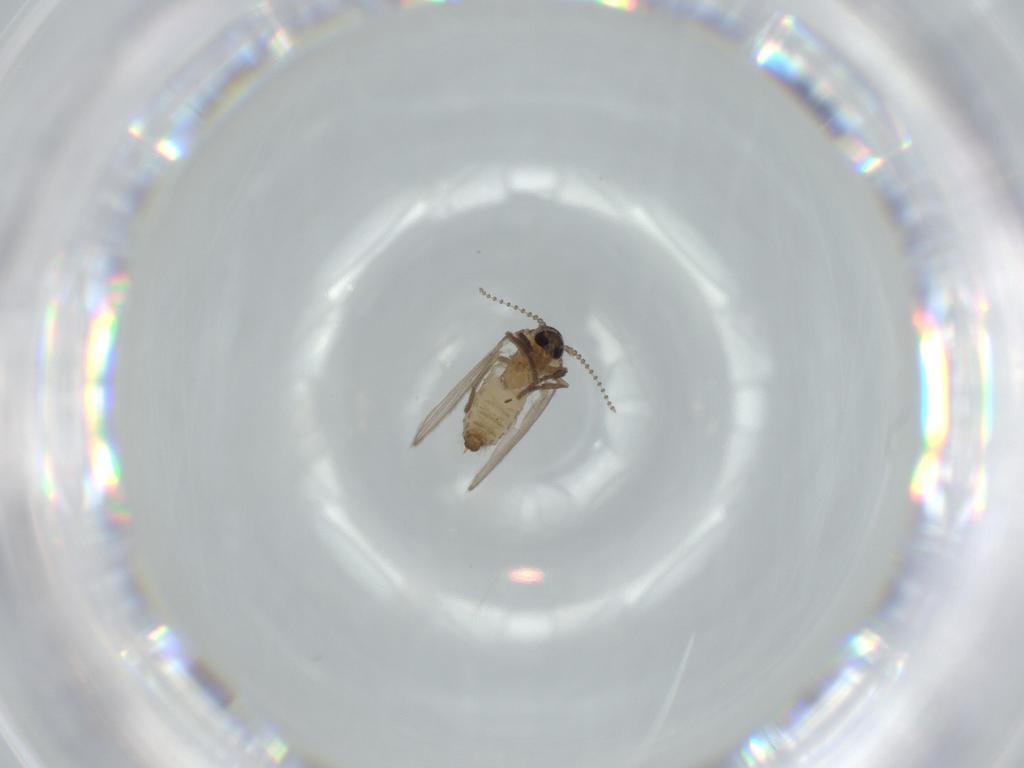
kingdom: Animalia
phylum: Arthropoda
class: Insecta
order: Diptera
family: Psychodidae
